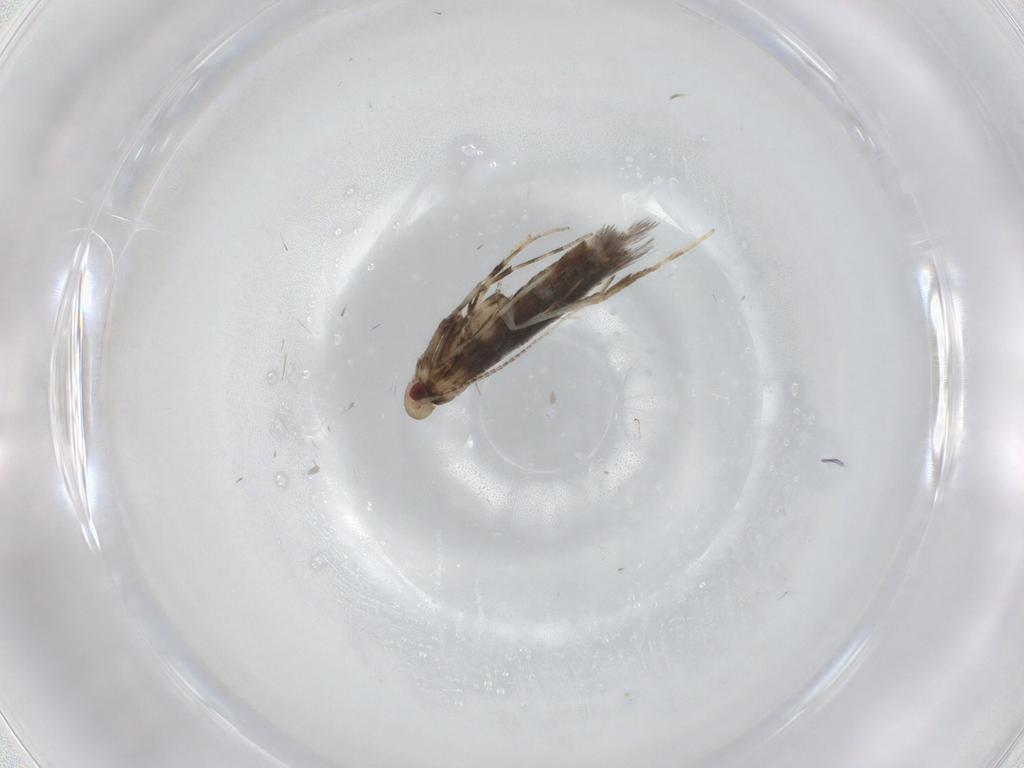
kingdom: Animalia
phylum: Arthropoda
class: Insecta
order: Lepidoptera
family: Gracillariidae
